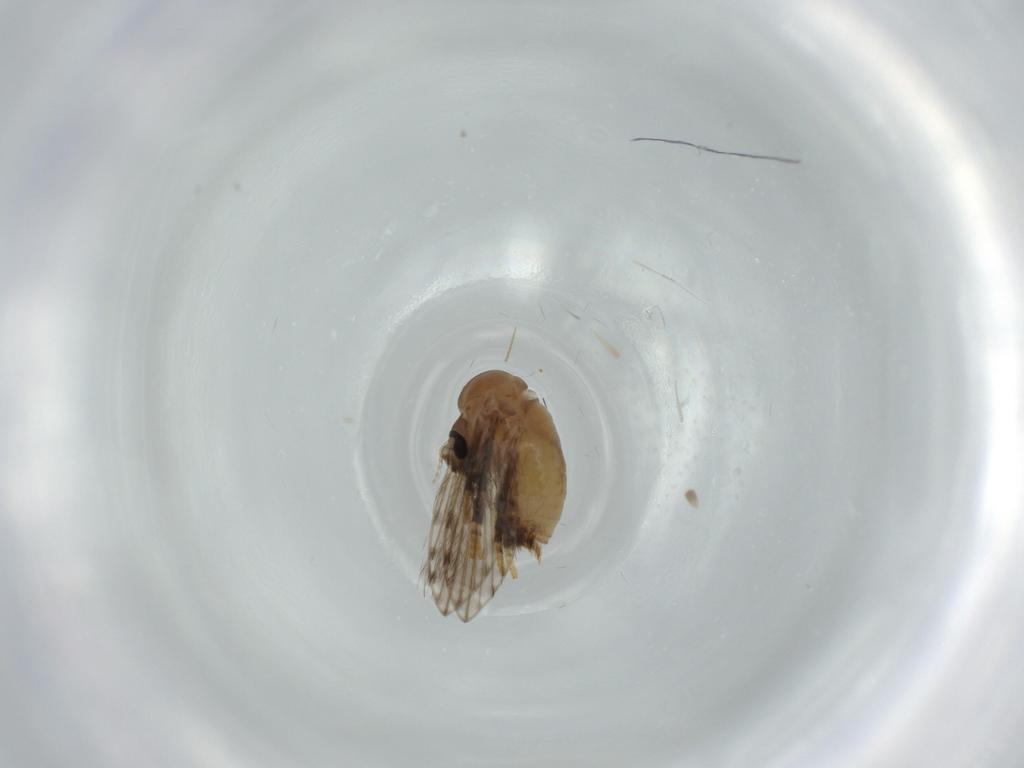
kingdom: Animalia
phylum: Arthropoda
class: Insecta
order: Diptera
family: Psychodidae
